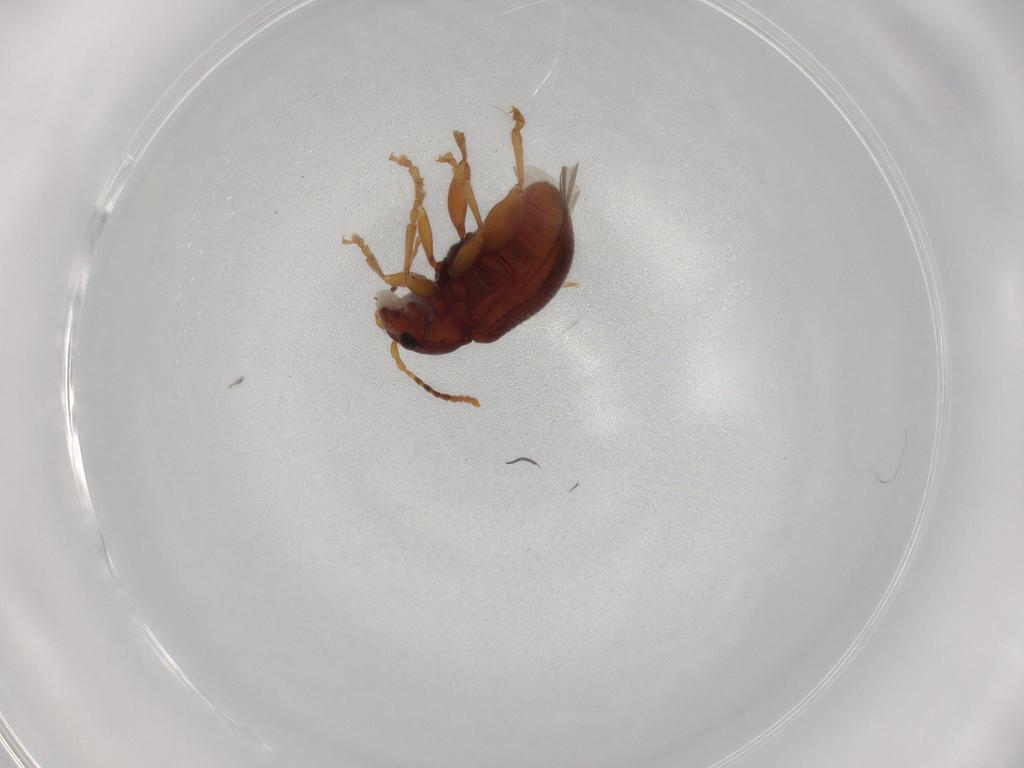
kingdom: Animalia
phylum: Arthropoda
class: Insecta
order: Coleoptera
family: Chrysomelidae
